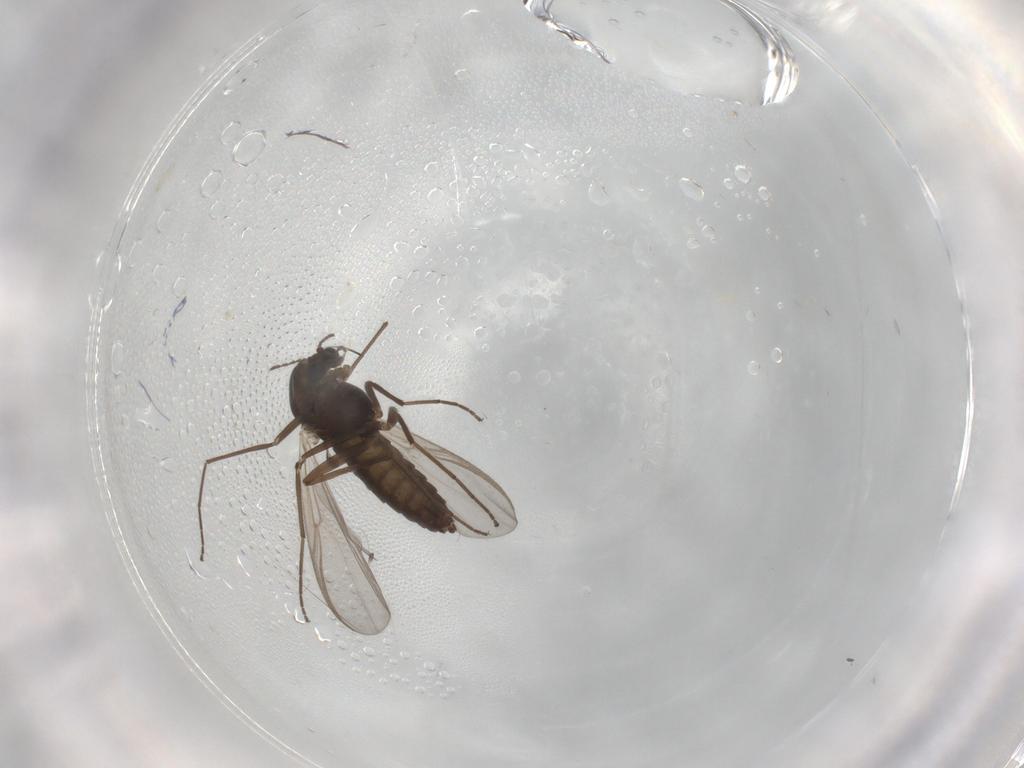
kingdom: Animalia
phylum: Arthropoda
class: Insecta
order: Diptera
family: Chironomidae
